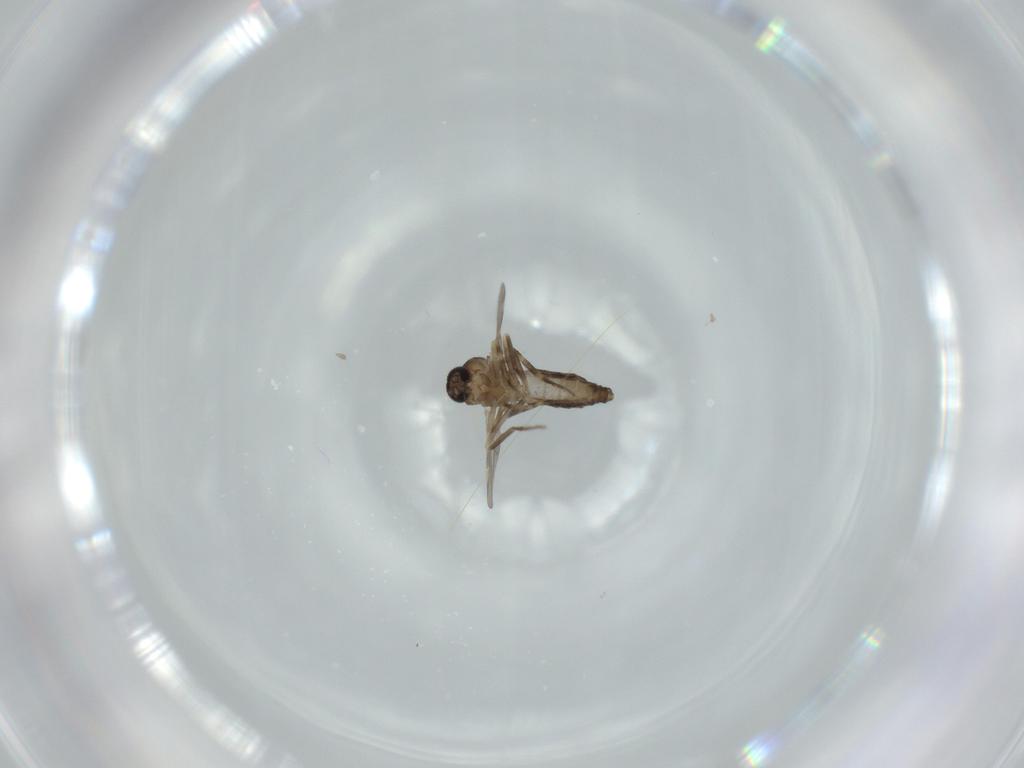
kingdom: Animalia
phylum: Arthropoda
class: Insecta
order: Diptera
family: Ceratopogonidae
